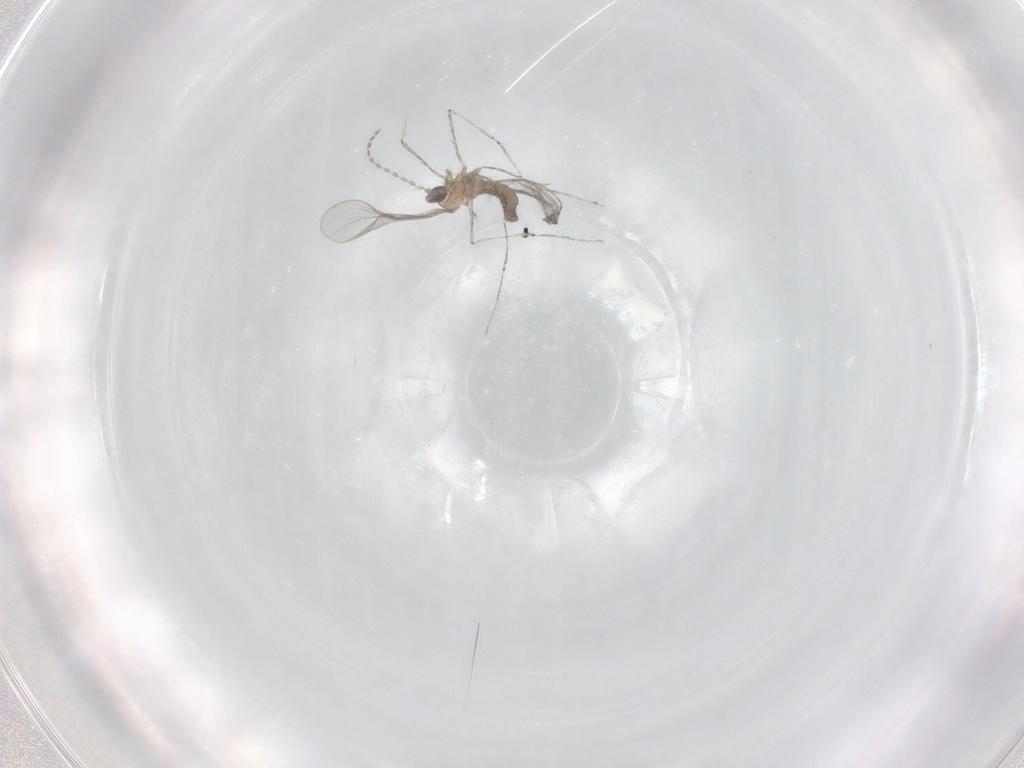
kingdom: Animalia
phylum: Arthropoda
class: Insecta
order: Diptera
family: Cecidomyiidae
